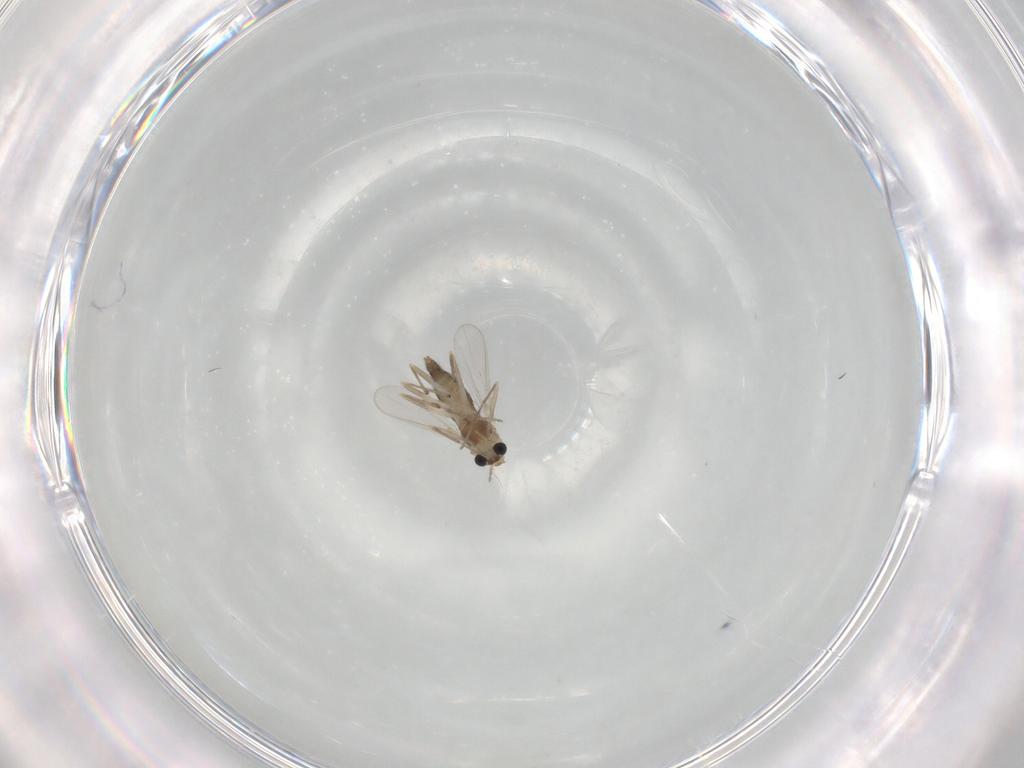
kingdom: Animalia
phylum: Arthropoda
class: Insecta
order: Diptera
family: Chironomidae
